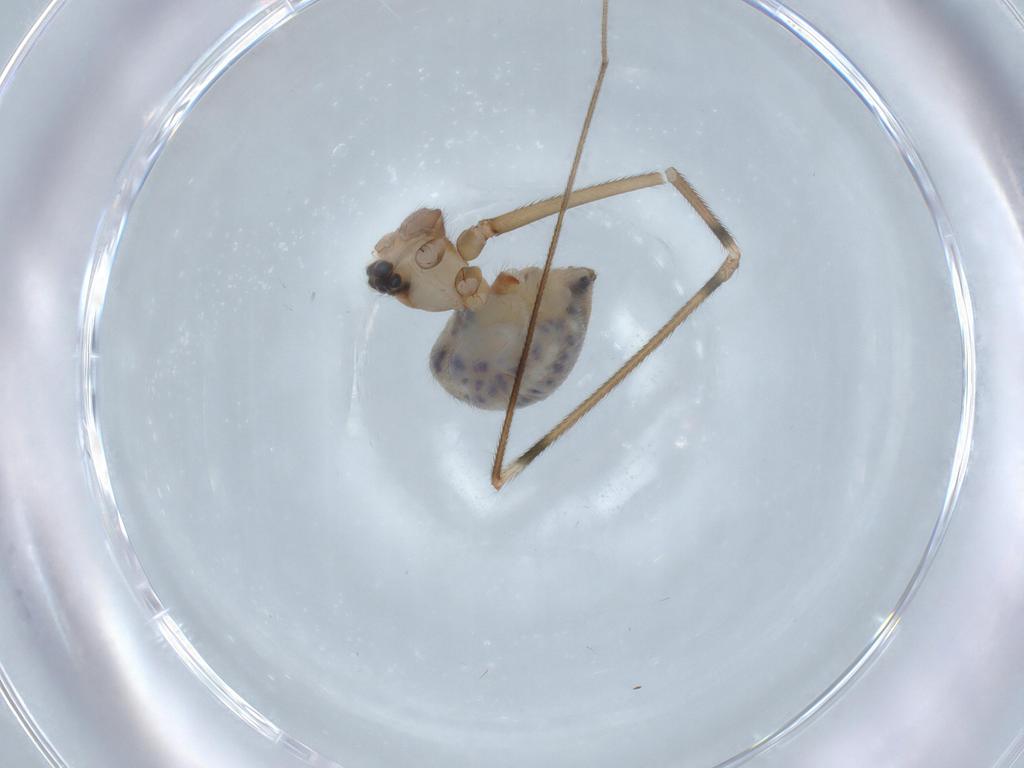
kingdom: Animalia
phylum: Arthropoda
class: Arachnida
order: Araneae
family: Pholcidae
